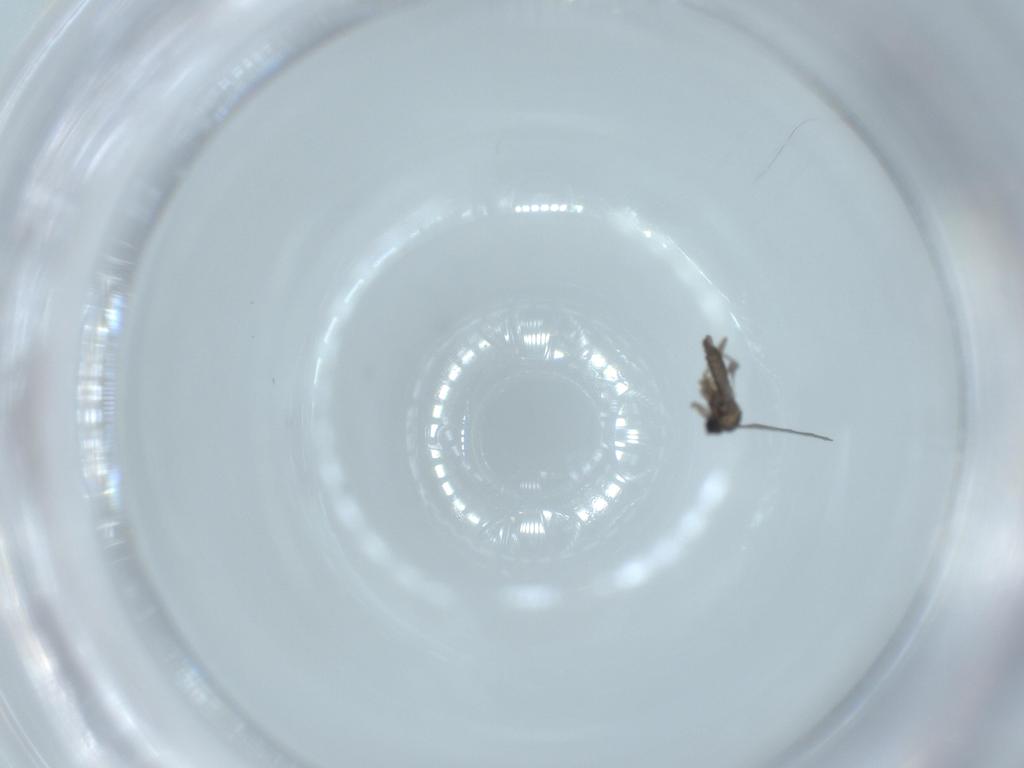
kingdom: Animalia
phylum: Arthropoda
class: Insecta
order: Diptera
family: Sciaridae
